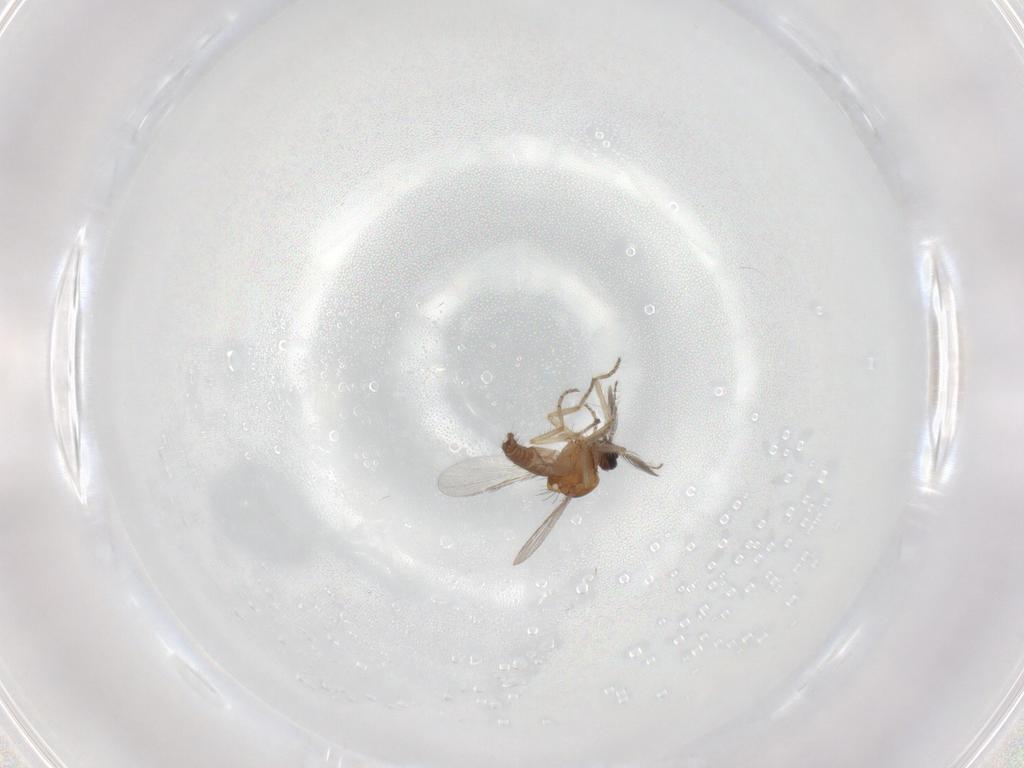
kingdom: Animalia
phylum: Arthropoda
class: Insecta
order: Diptera
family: Ceratopogonidae
